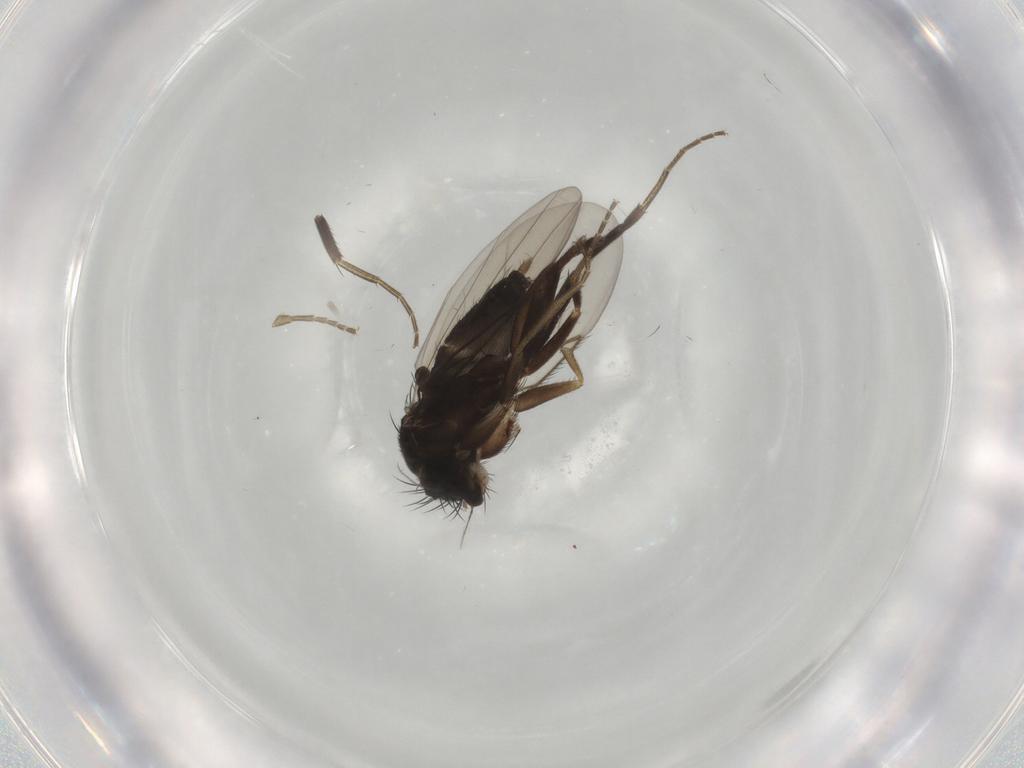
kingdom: Animalia
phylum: Arthropoda
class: Insecta
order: Diptera
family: Phoridae
